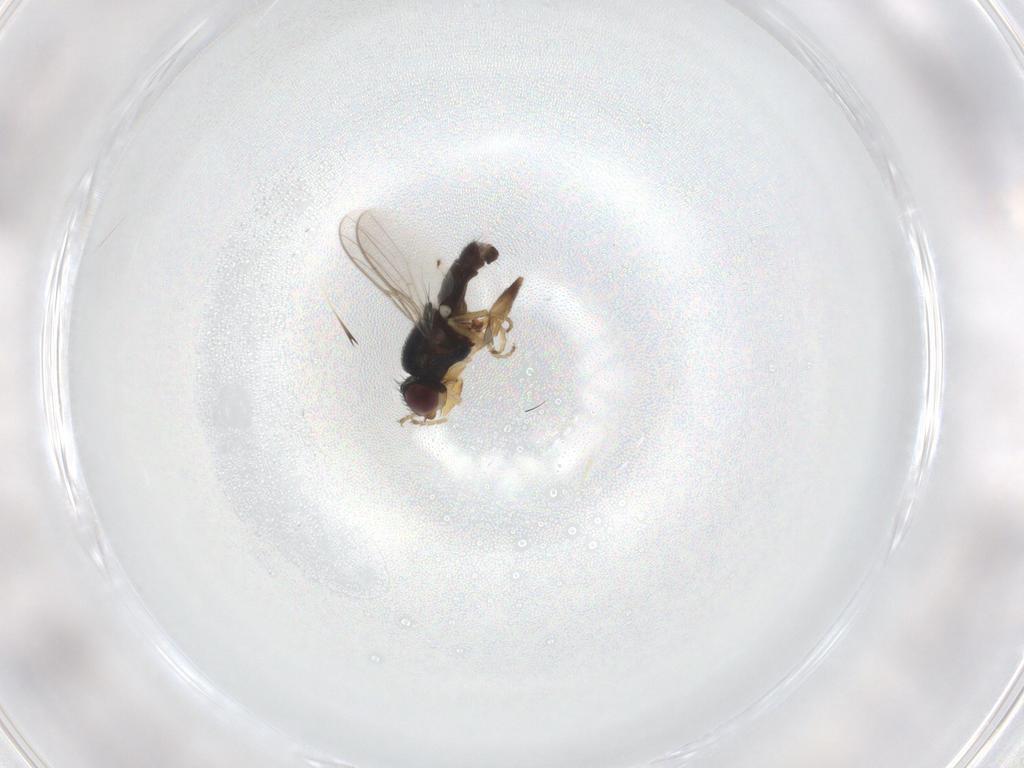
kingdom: Animalia
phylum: Arthropoda
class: Insecta
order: Diptera
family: Chloropidae
